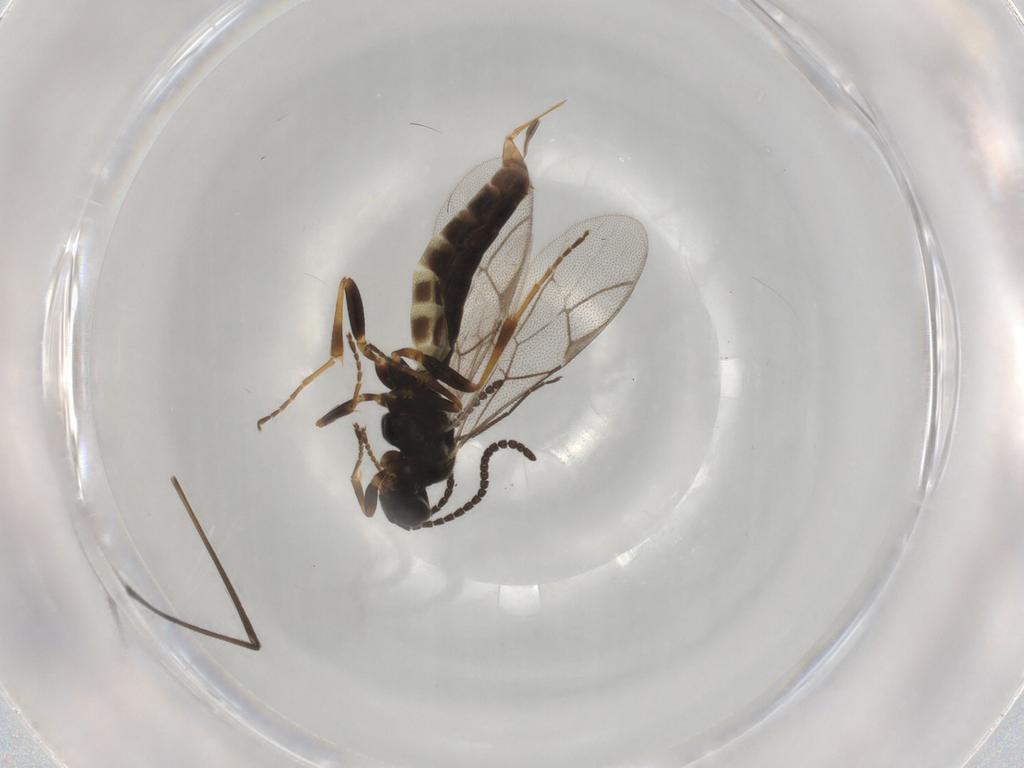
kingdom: Animalia
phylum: Arthropoda
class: Insecta
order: Hymenoptera
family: Ichneumonidae
